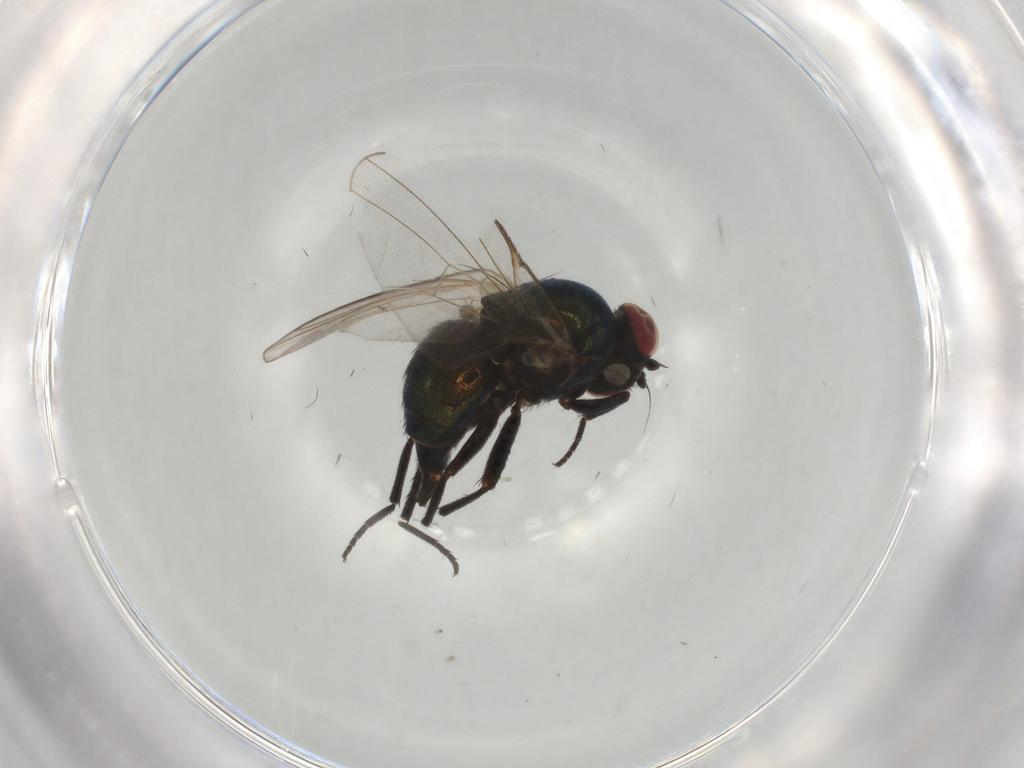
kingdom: Animalia
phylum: Arthropoda
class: Insecta
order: Diptera
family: Agromyzidae
